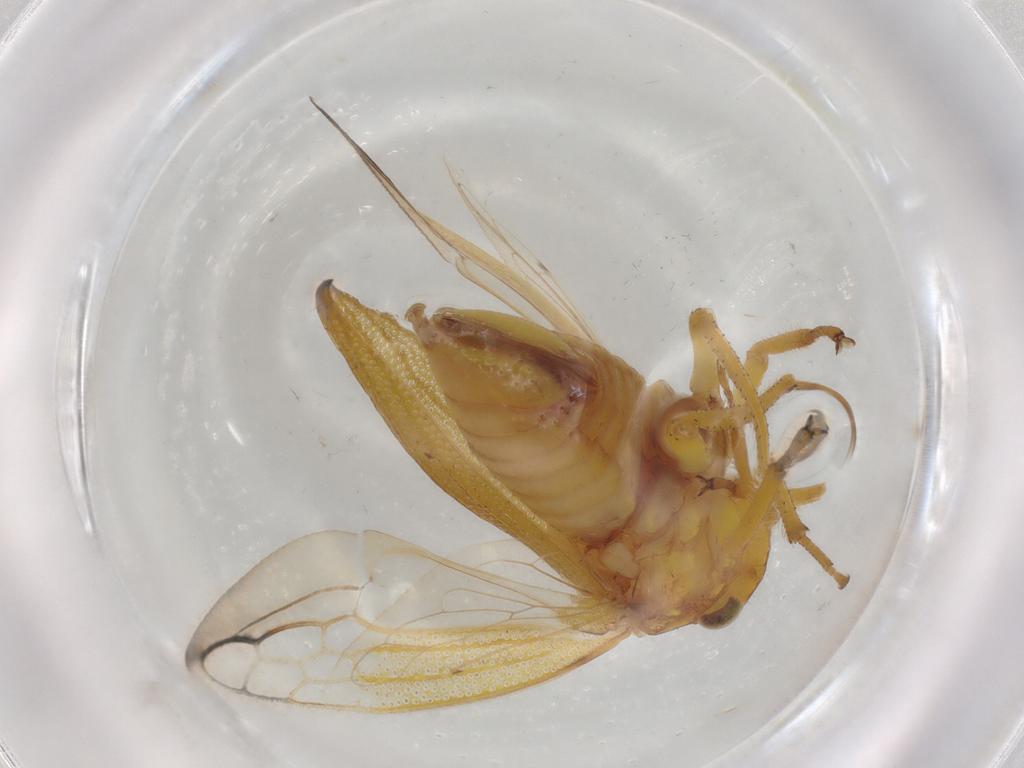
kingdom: Animalia
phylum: Arthropoda
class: Insecta
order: Hemiptera
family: Membracidae
